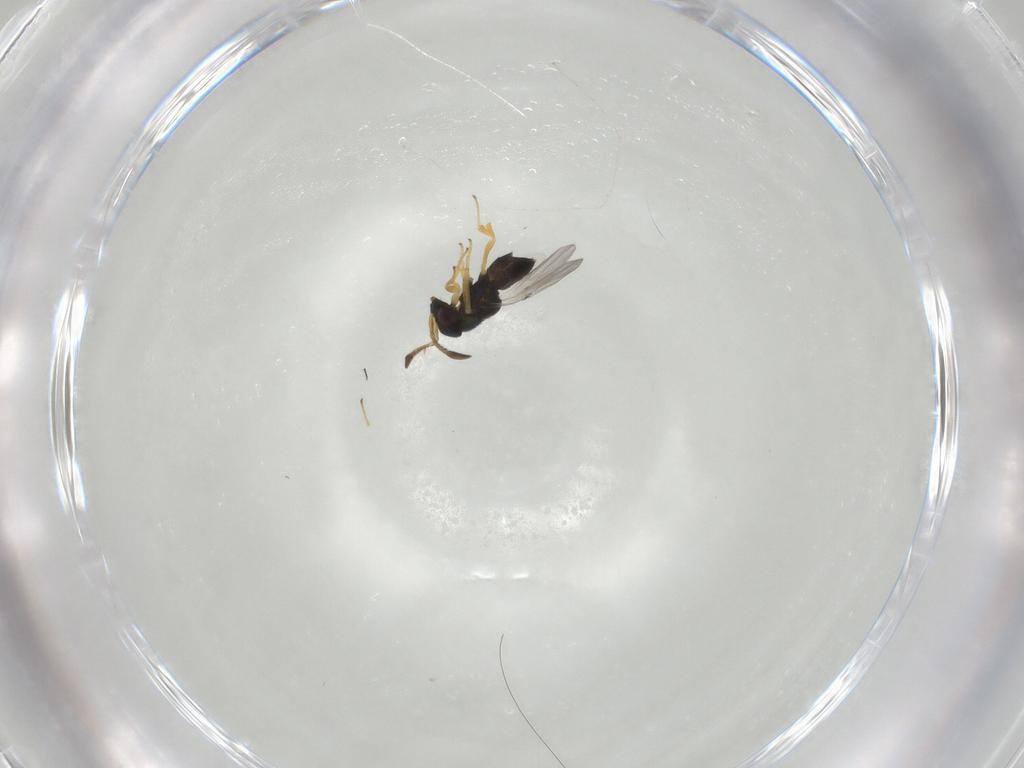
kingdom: Animalia
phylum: Arthropoda
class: Insecta
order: Hymenoptera
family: Encyrtidae
